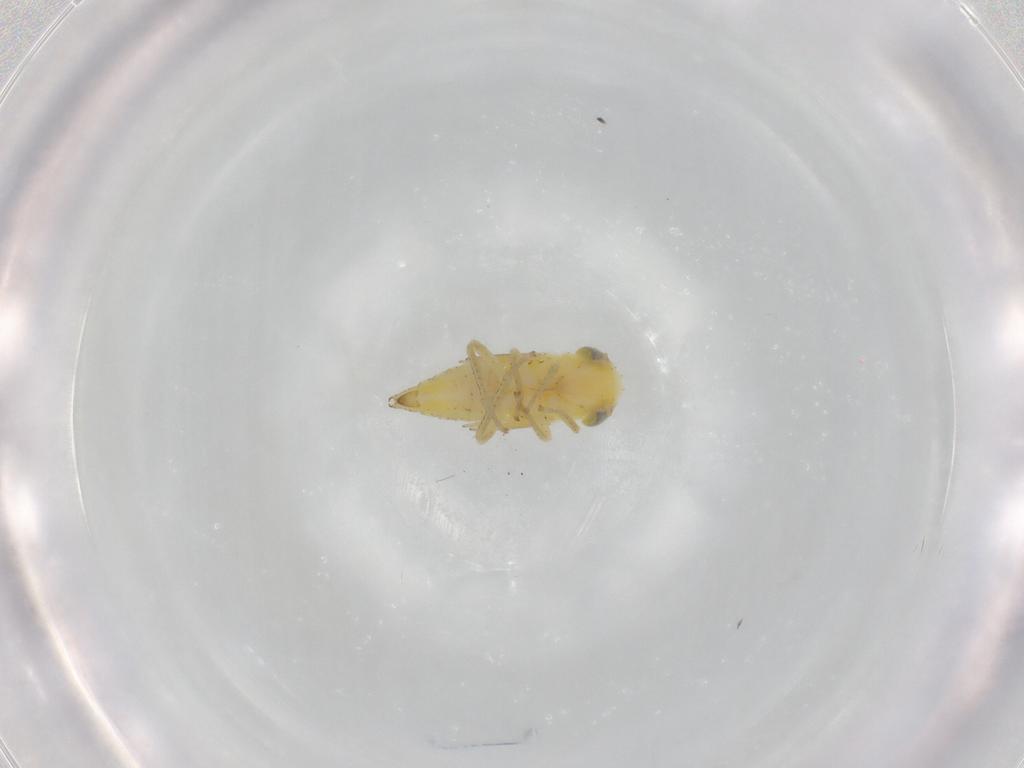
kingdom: Animalia
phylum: Arthropoda
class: Insecta
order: Hemiptera
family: Cicadellidae
